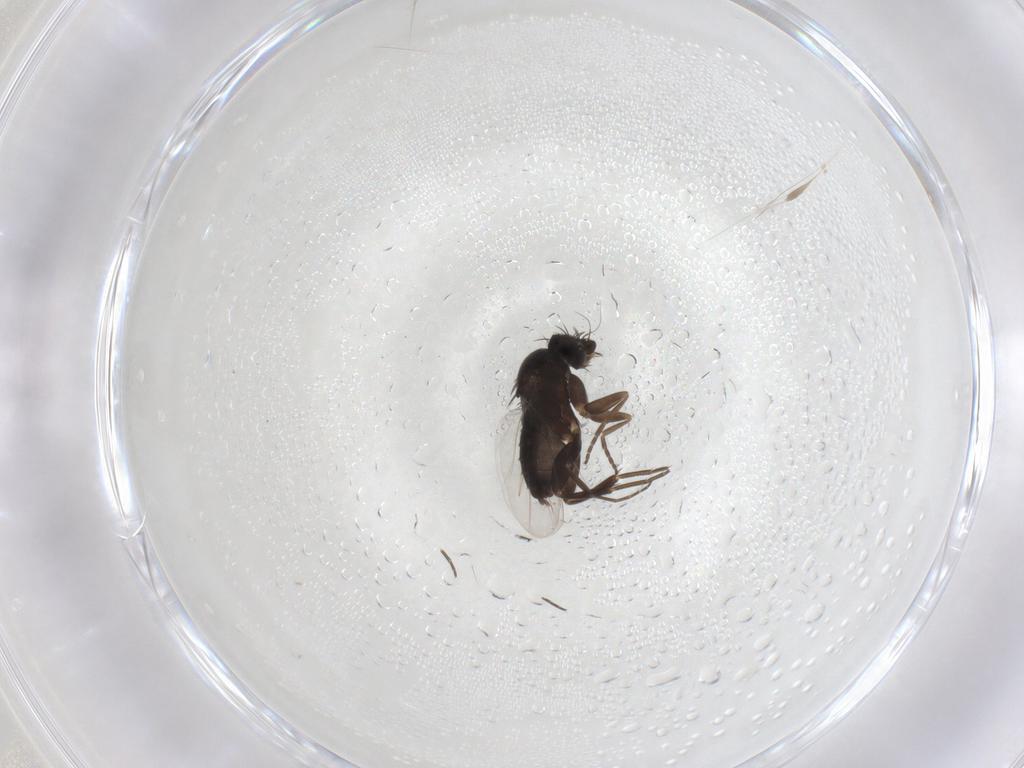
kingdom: Animalia
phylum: Arthropoda
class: Insecta
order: Diptera
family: Phoridae
